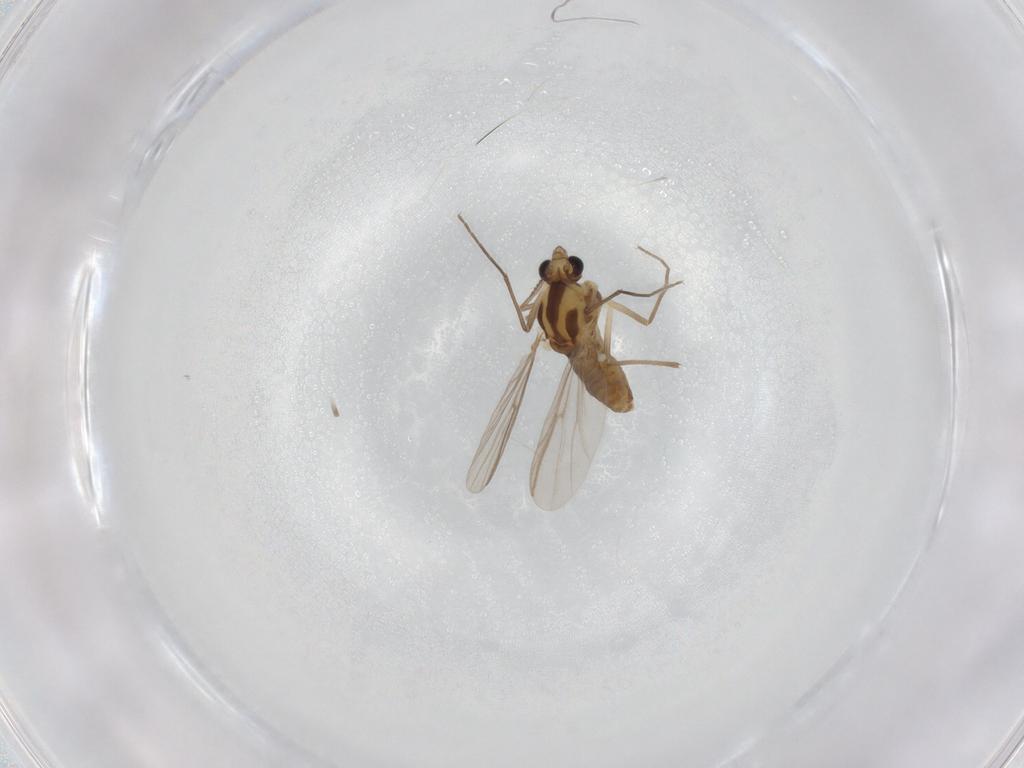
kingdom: Animalia
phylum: Arthropoda
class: Insecta
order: Diptera
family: Chironomidae
